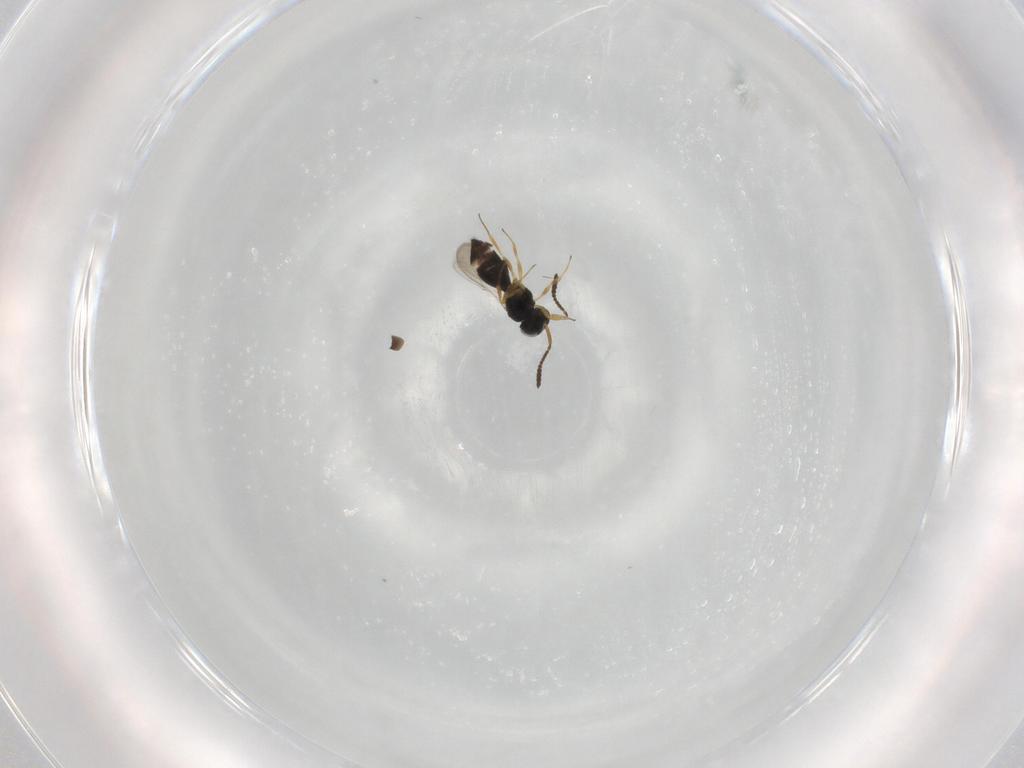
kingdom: Animalia
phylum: Arthropoda
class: Insecta
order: Hymenoptera
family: Scelionidae
